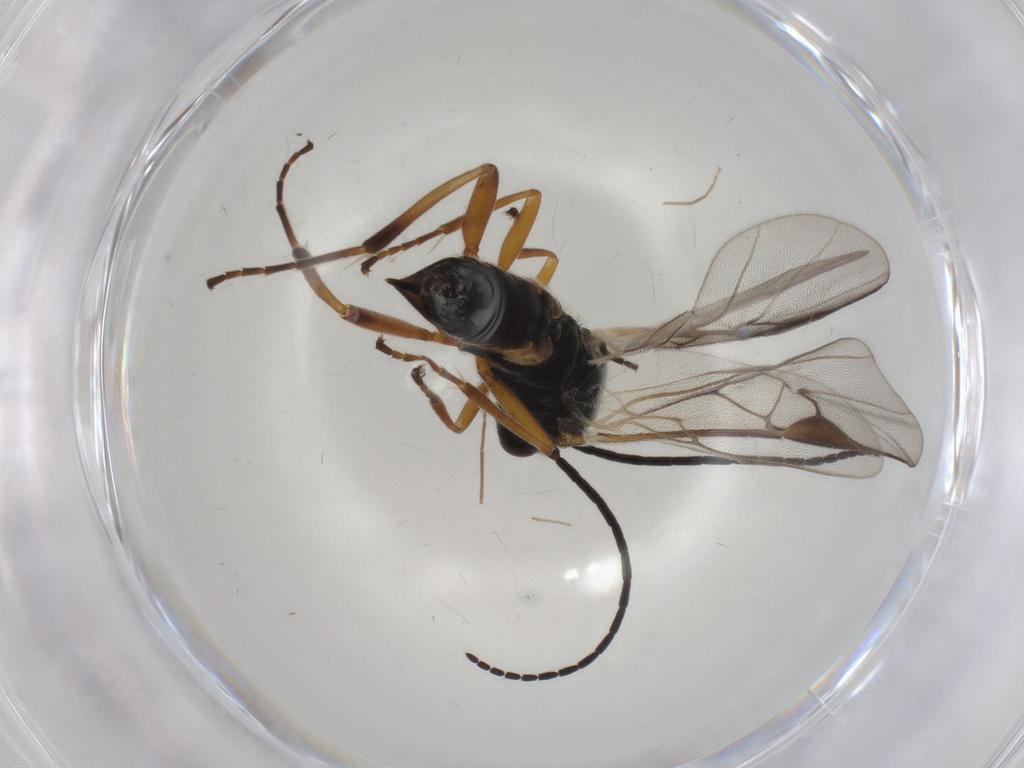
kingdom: Animalia
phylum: Arthropoda
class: Insecta
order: Hymenoptera
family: Braconidae
